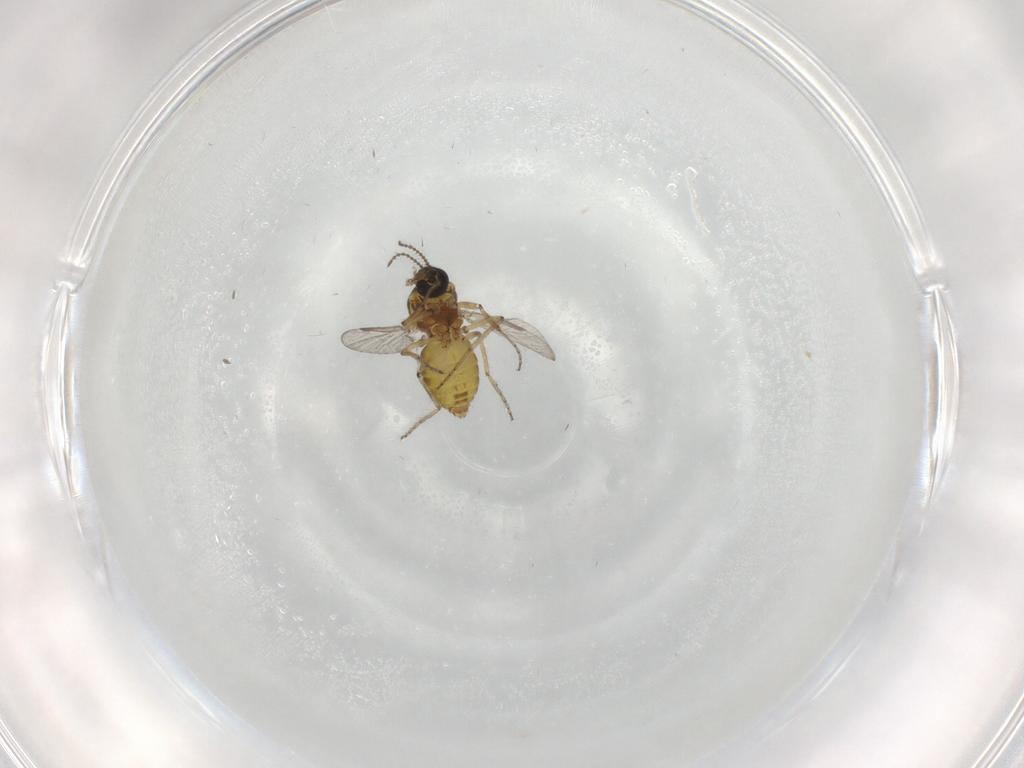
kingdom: Animalia
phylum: Arthropoda
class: Insecta
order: Diptera
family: Ceratopogonidae
